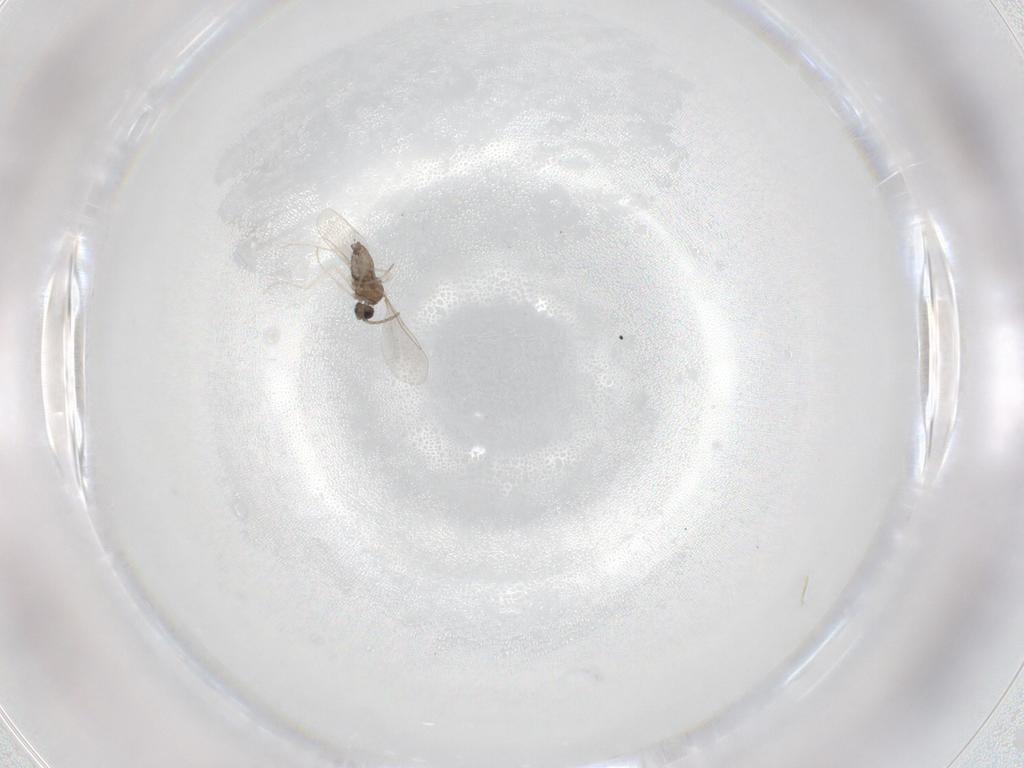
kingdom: Animalia
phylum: Arthropoda
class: Insecta
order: Diptera
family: Cecidomyiidae
